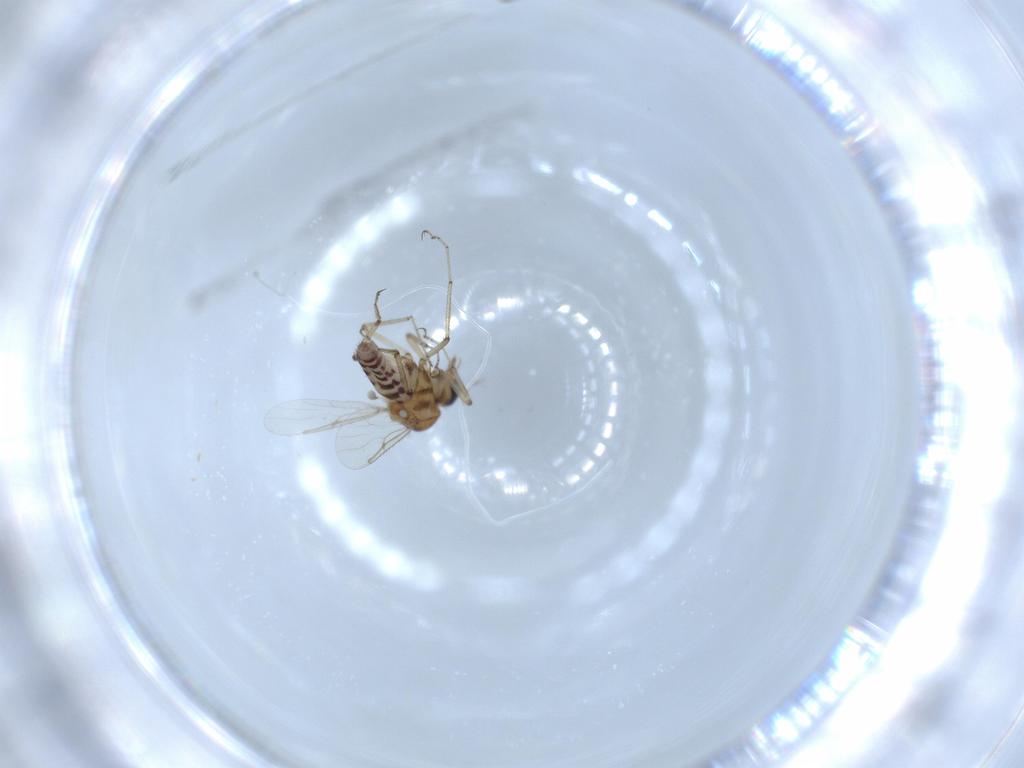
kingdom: Animalia
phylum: Arthropoda
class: Insecta
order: Diptera
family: Ceratopogonidae
